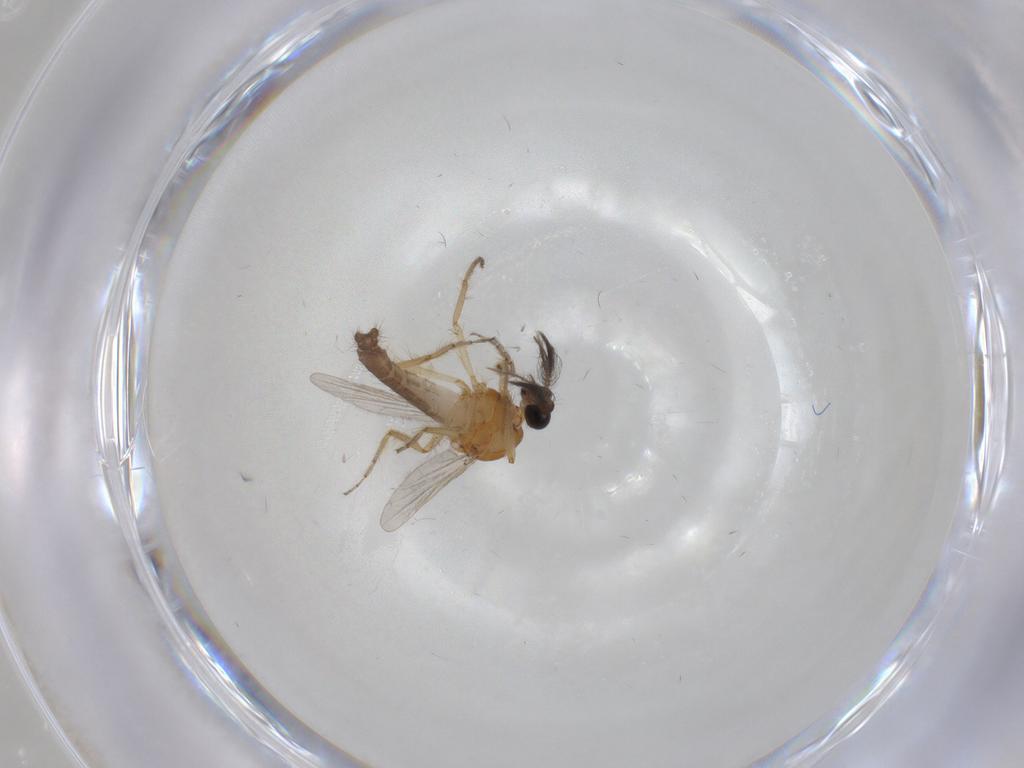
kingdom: Animalia
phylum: Arthropoda
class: Insecta
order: Diptera
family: Ceratopogonidae
